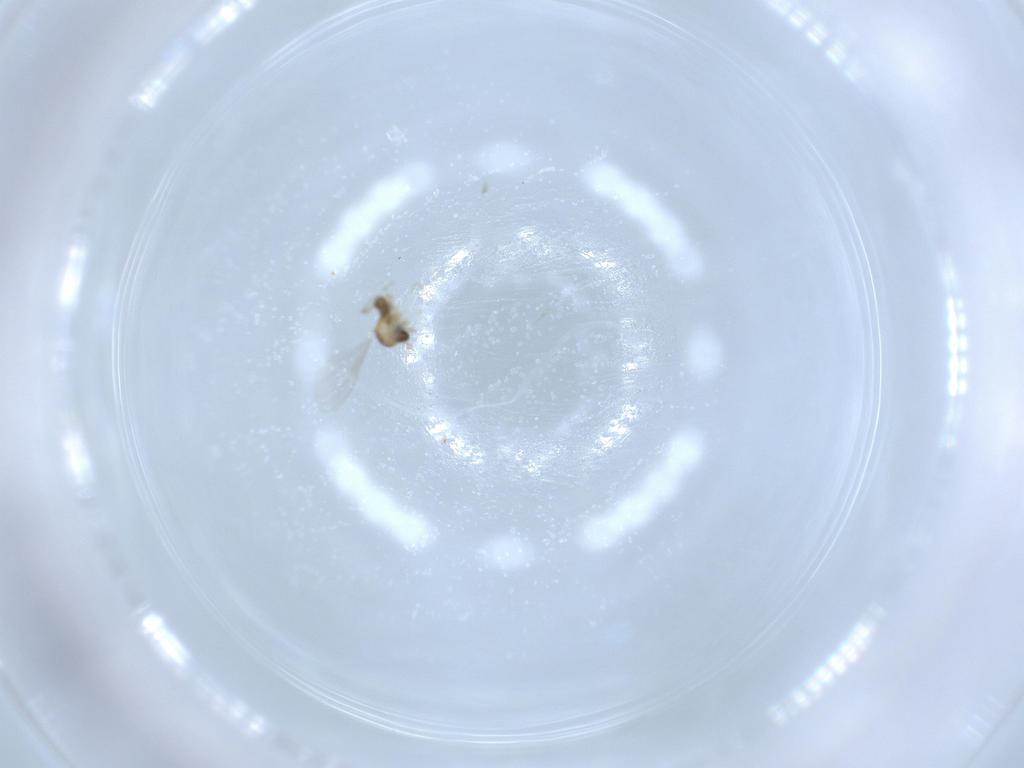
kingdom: Animalia
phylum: Arthropoda
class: Insecta
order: Diptera
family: Cecidomyiidae
